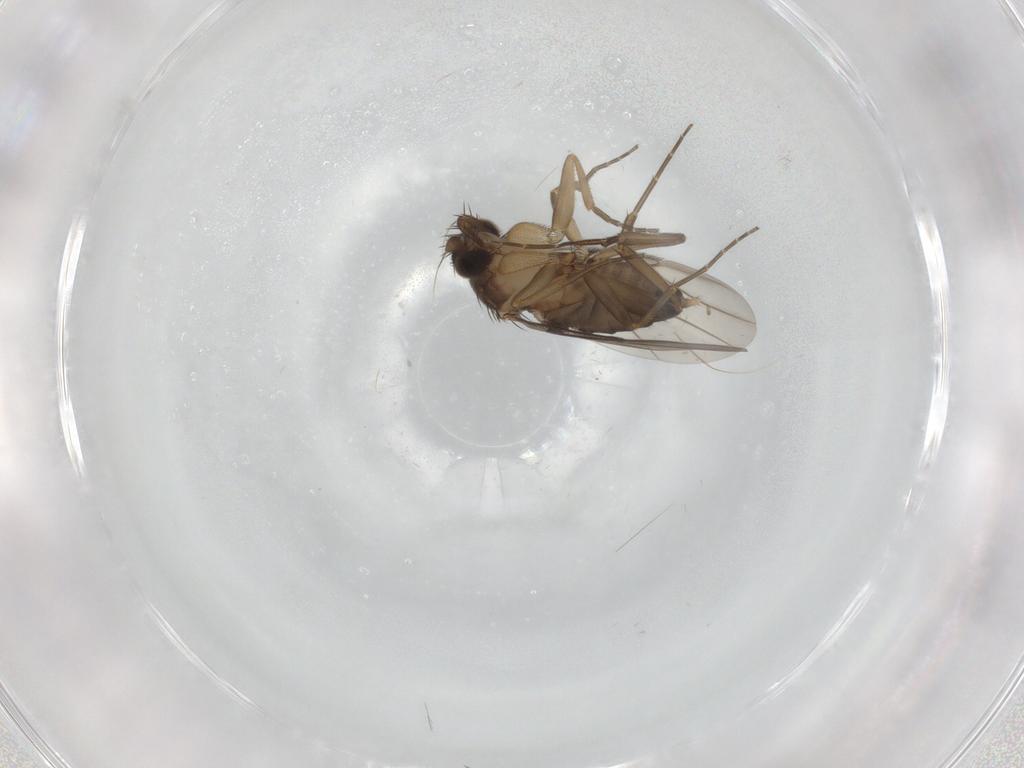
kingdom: Animalia
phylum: Arthropoda
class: Insecta
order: Diptera
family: Phoridae
